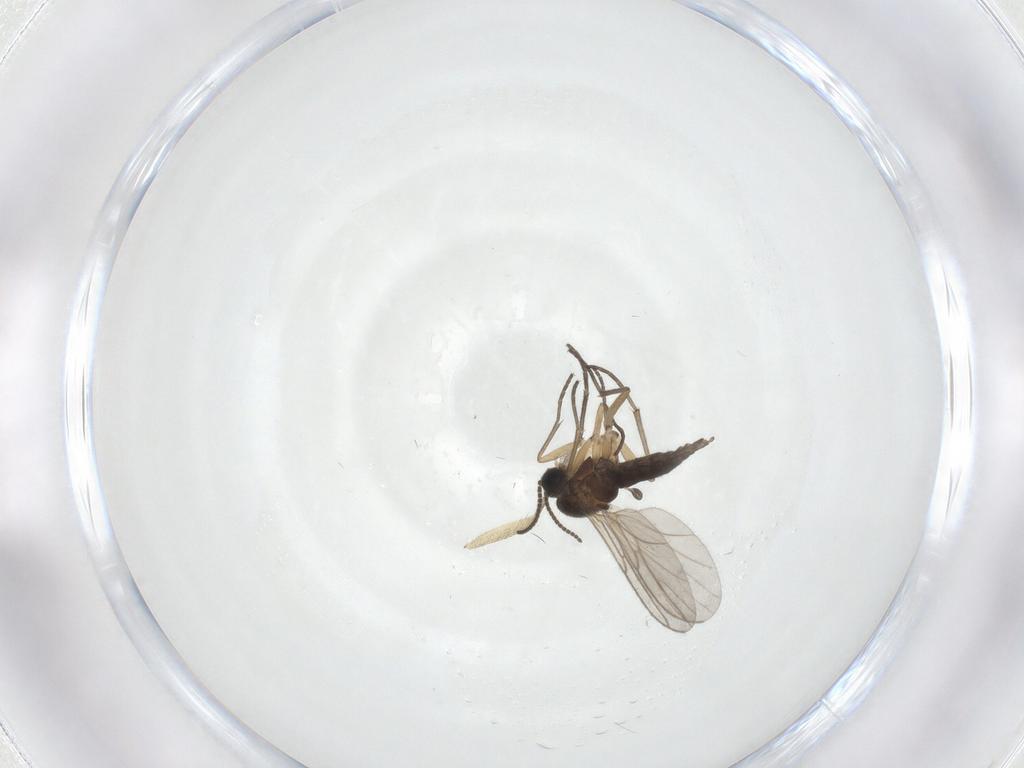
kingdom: Animalia
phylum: Arthropoda
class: Insecta
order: Diptera
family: Sciaridae
